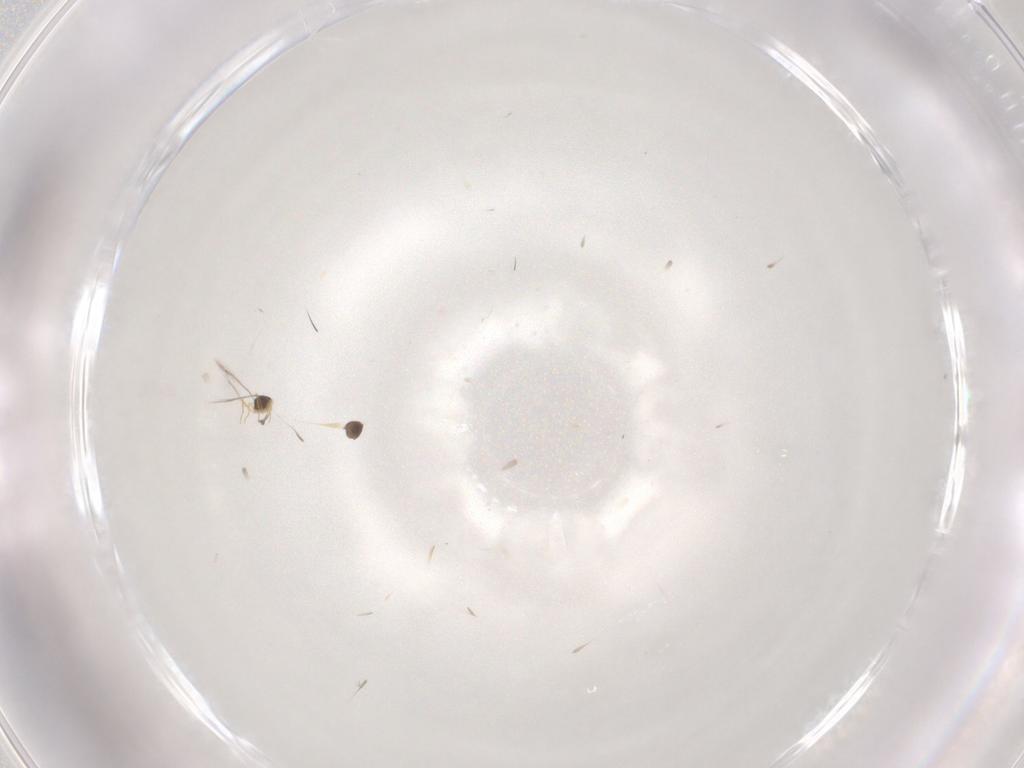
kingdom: Animalia
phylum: Arthropoda
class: Insecta
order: Hymenoptera
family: Mymaridae
